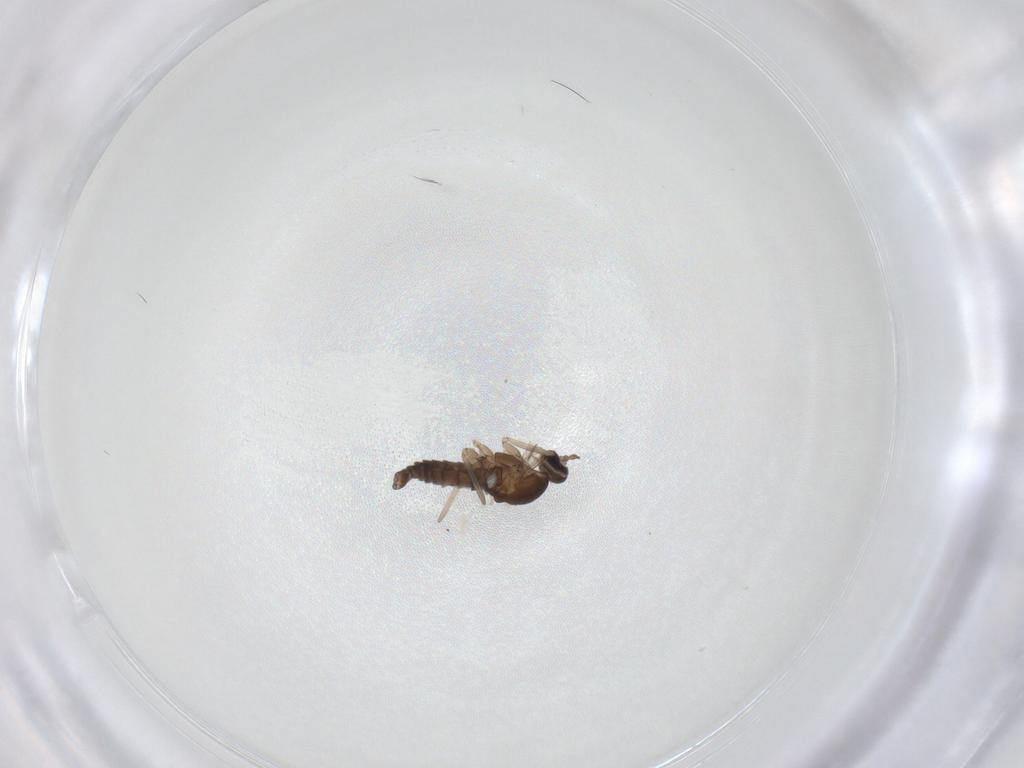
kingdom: Animalia
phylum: Arthropoda
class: Insecta
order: Diptera
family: Cecidomyiidae
